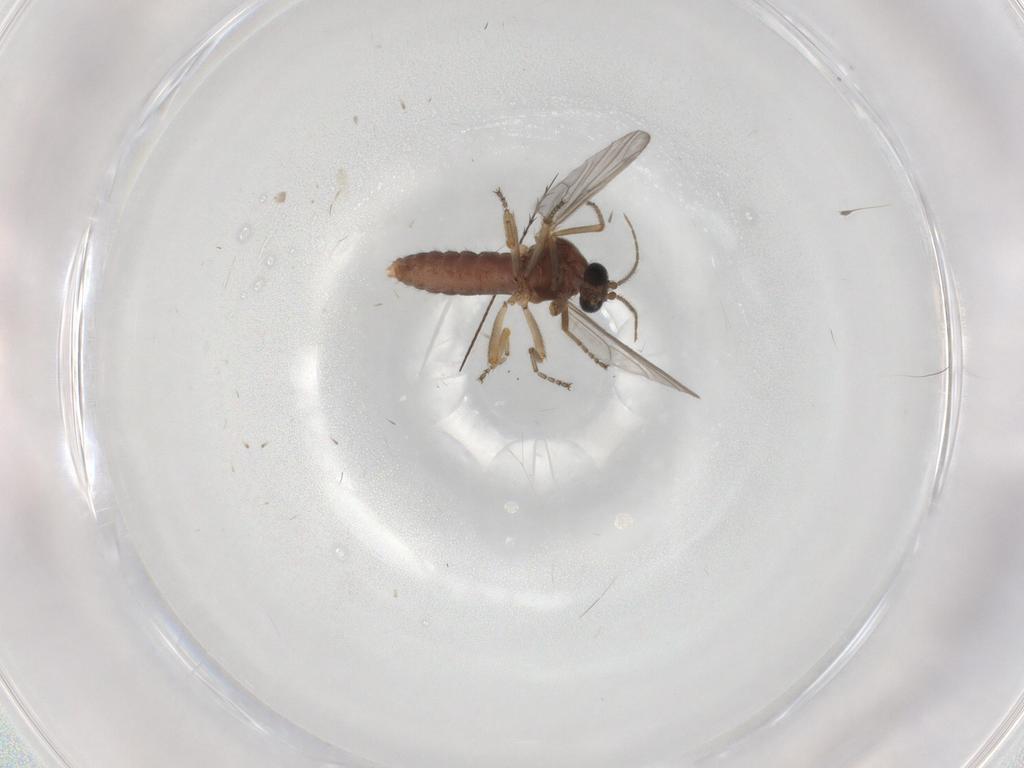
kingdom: Animalia
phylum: Arthropoda
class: Insecta
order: Diptera
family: Ceratopogonidae
